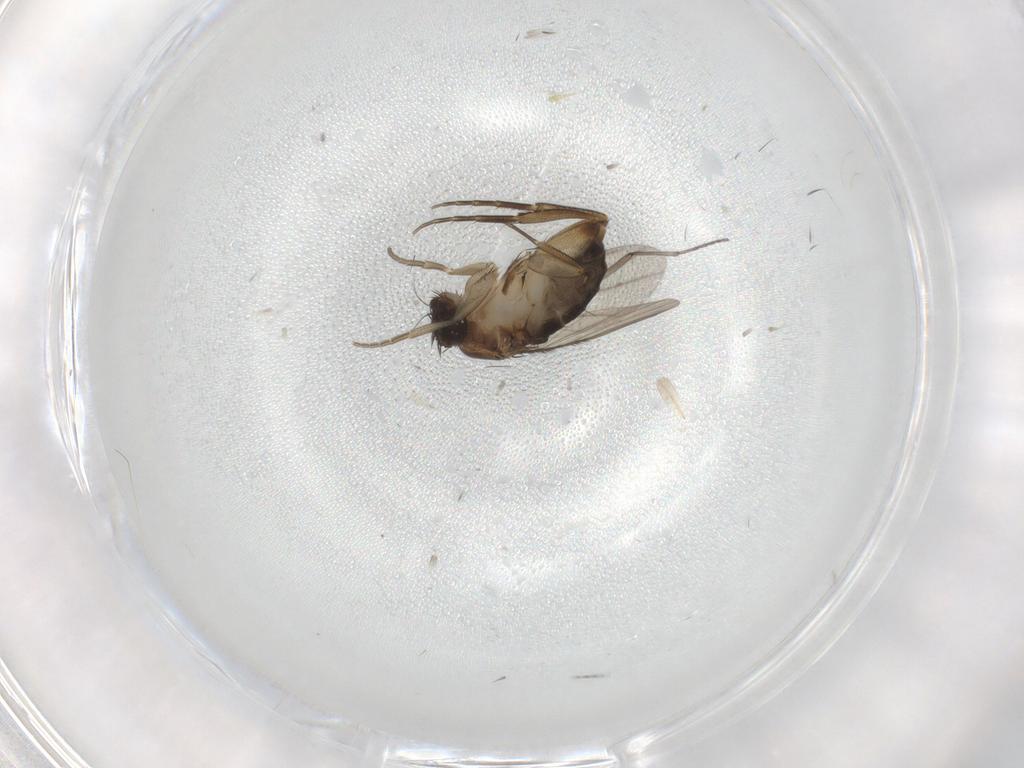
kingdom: Animalia
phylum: Arthropoda
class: Insecta
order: Diptera
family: Phoridae
